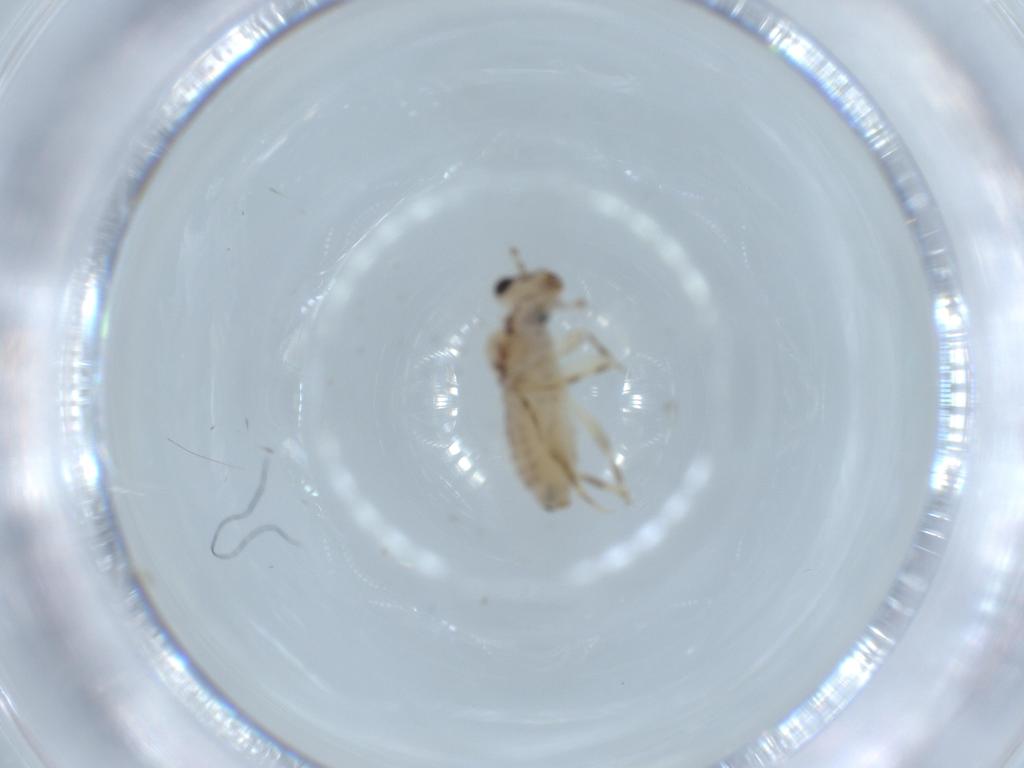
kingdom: Animalia
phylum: Arthropoda
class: Insecta
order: Psocodea
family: Lepidopsocidae
